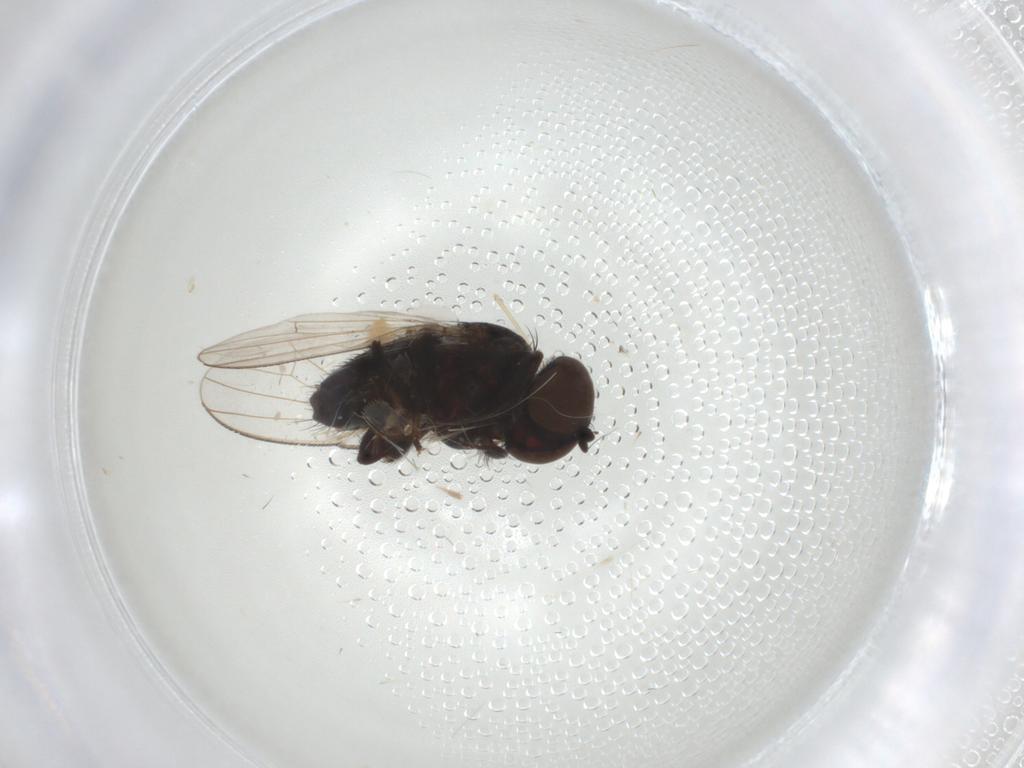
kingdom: Animalia
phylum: Arthropoda
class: Insecta
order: Diptera
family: Milichiidae
